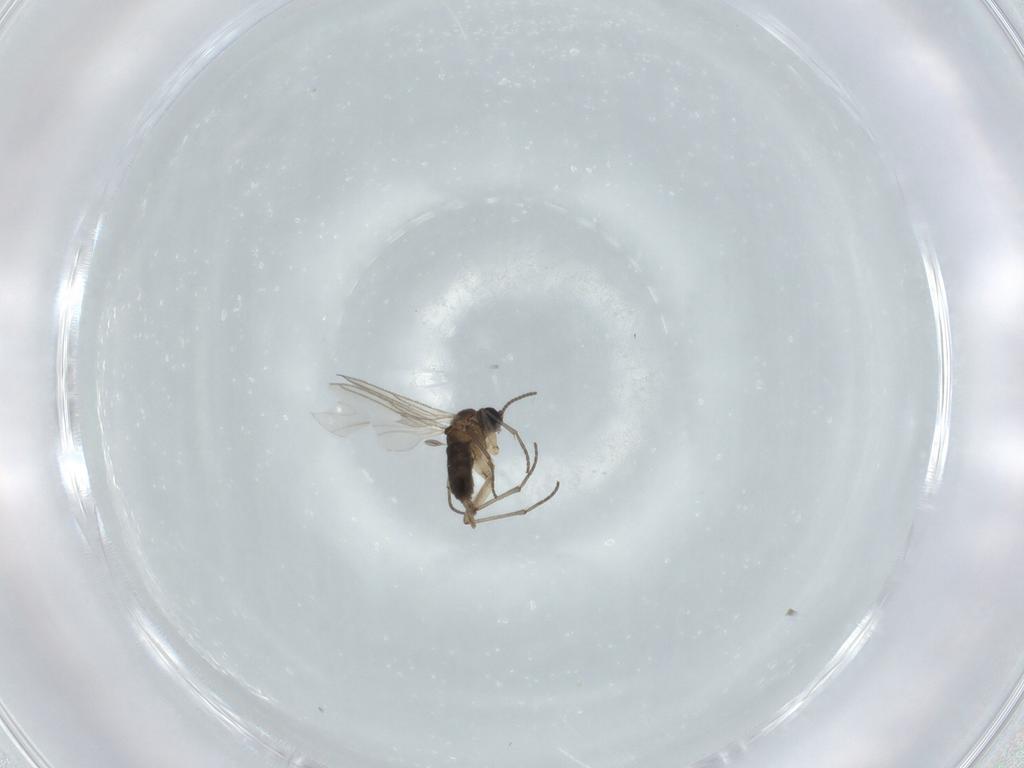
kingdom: Animalia
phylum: Arthropoda
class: Insecta
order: Diptera
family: Sciaridae
